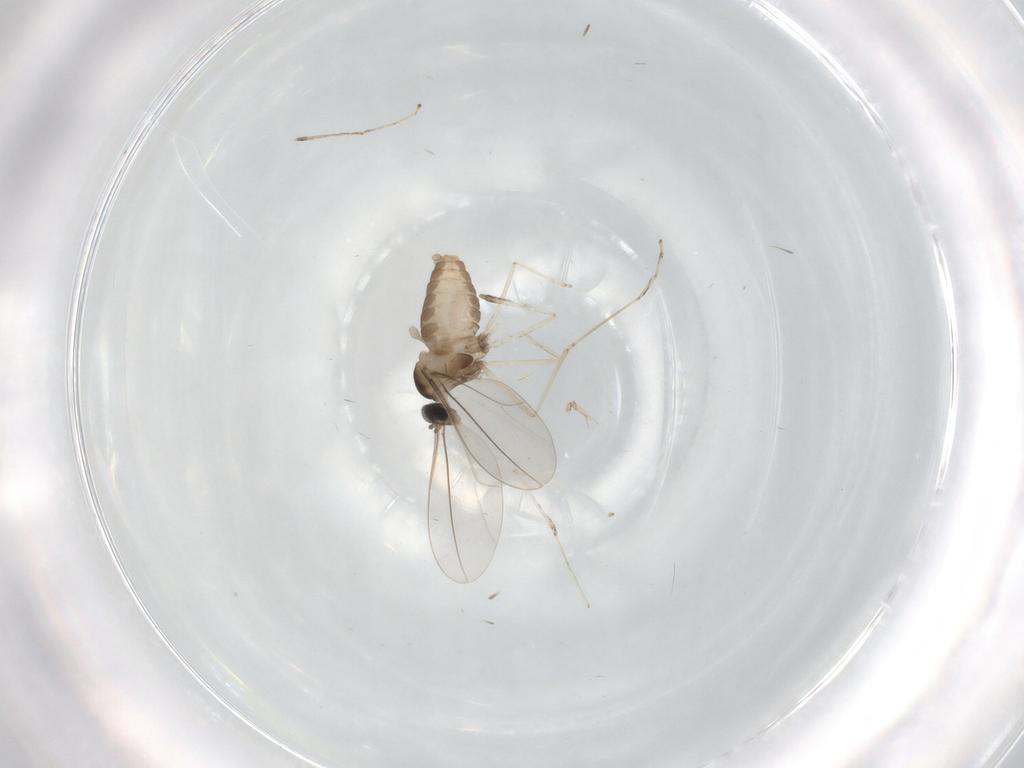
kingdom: Animalia
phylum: Arthropoda
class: Insecta
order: Diptera
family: Cecidomyiidae
